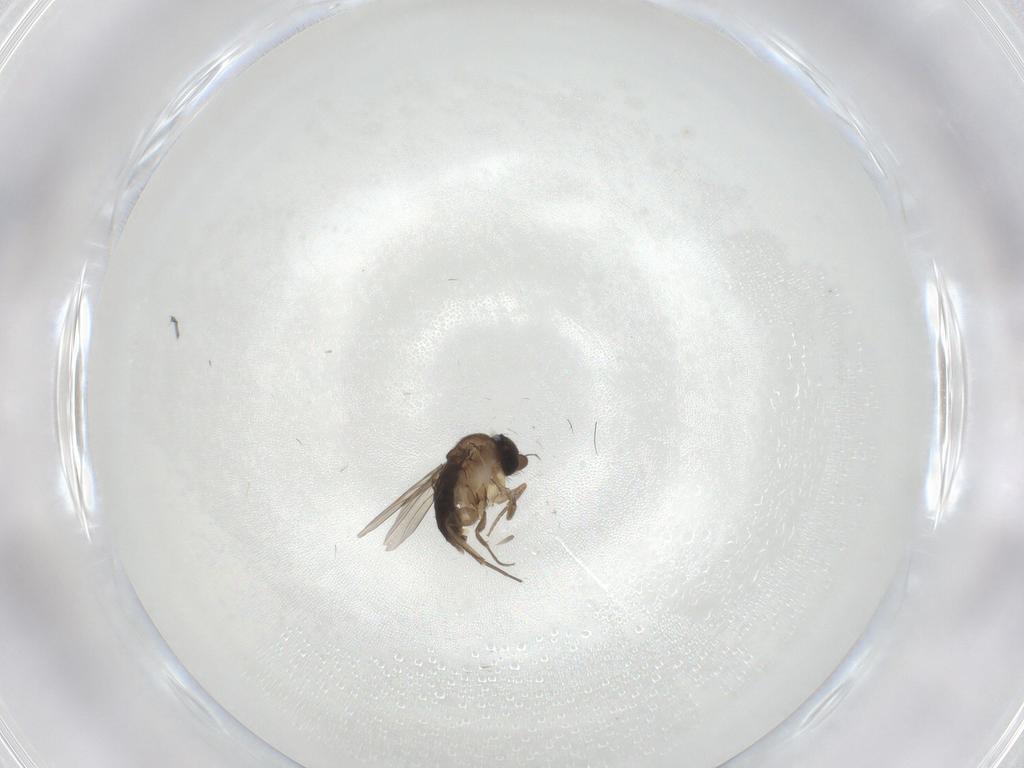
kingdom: Animalia
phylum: Arthropoda
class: Insecta
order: Diptera
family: Phoridae
